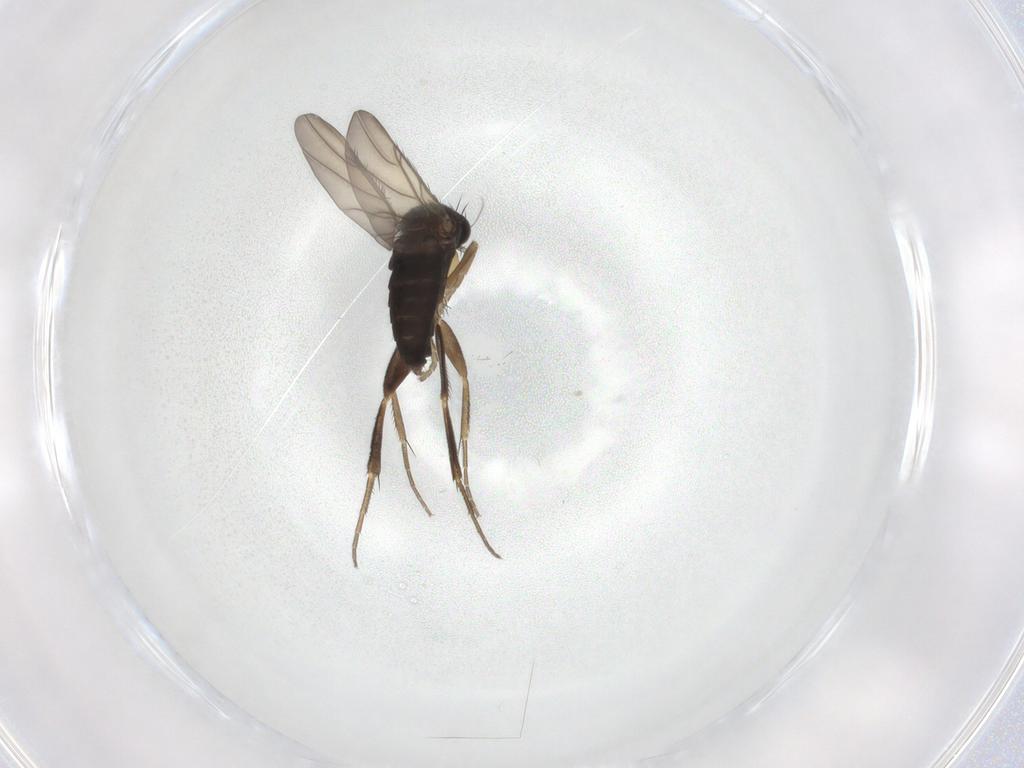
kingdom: Animalia
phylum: Arthropoda
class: Insecta
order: Diptera
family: Phoridae
